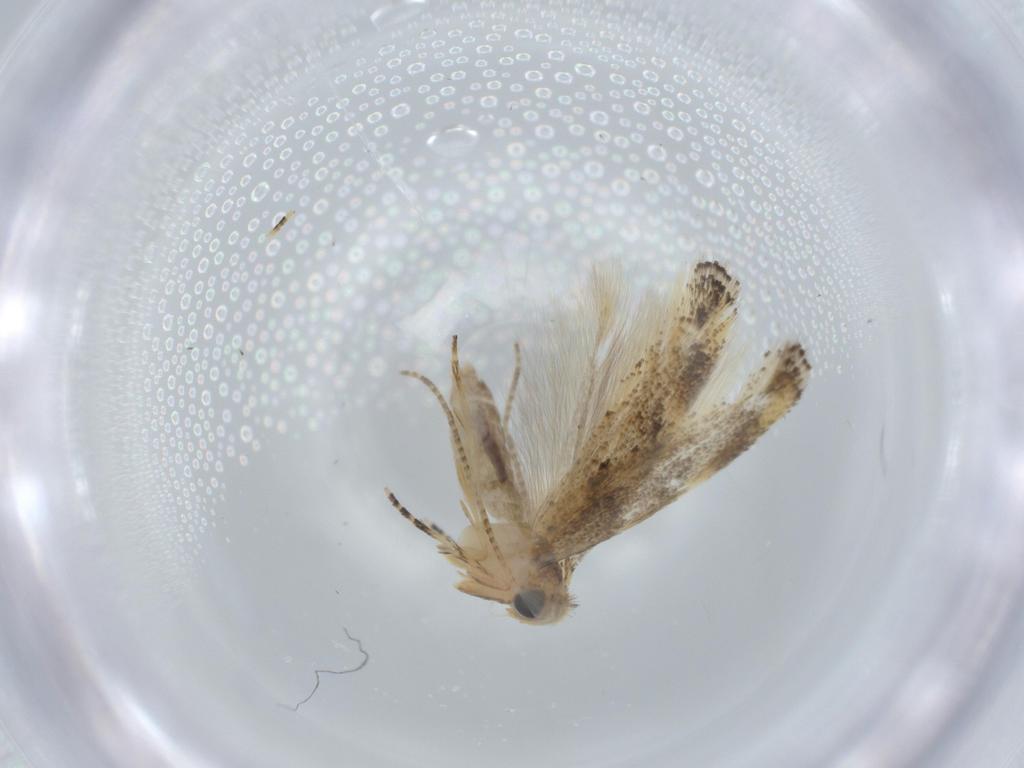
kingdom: Animalia
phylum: Arthropoda
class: Insecta
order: Lepidoptera
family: Bucculatricidae
